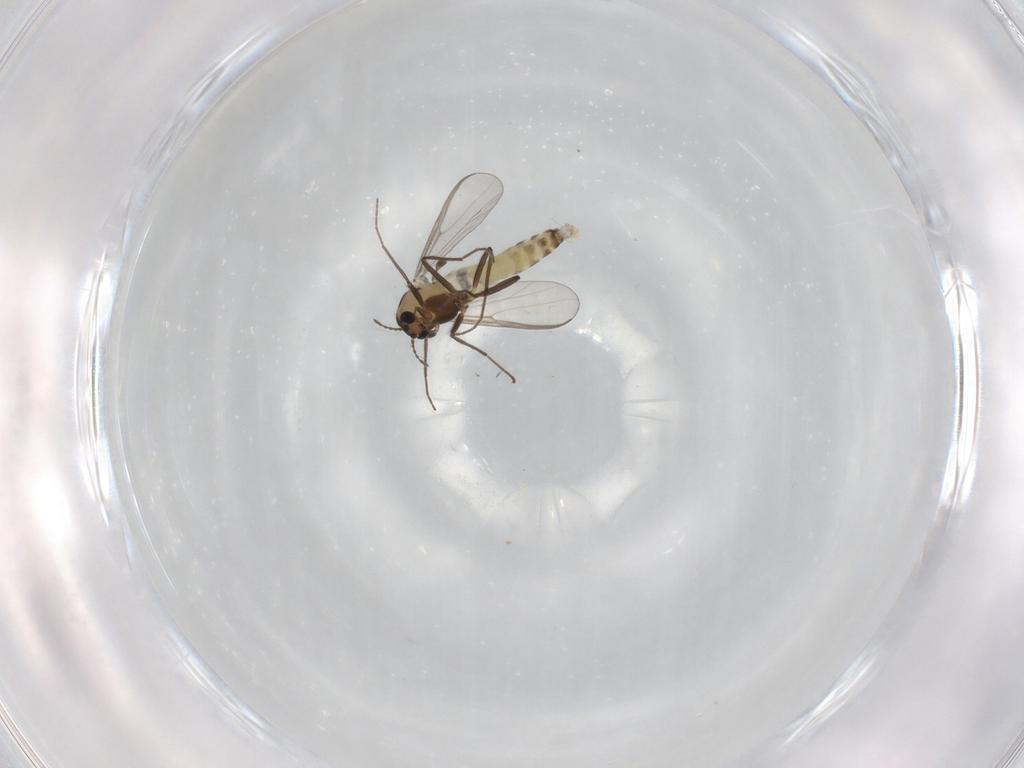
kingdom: Animalia
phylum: Arthropoda
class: Insecta
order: Diptera
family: Chironomidae
